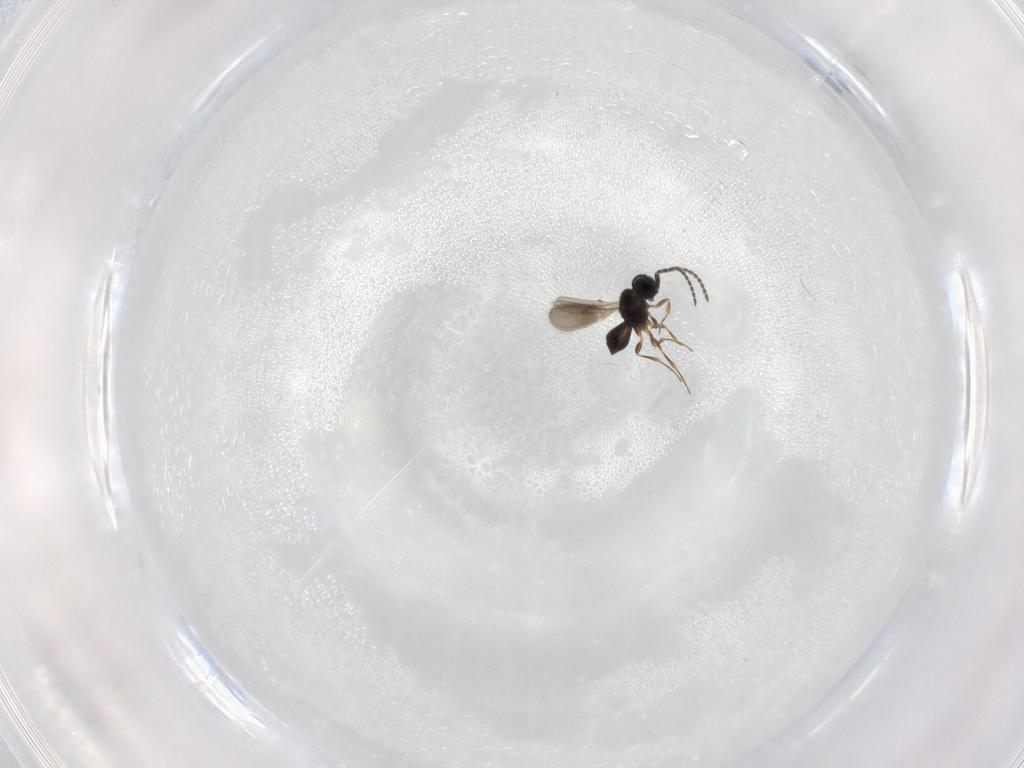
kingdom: Animalia
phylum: Arthropoda
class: Insecta
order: Hymenoptera
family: Scelionidae
